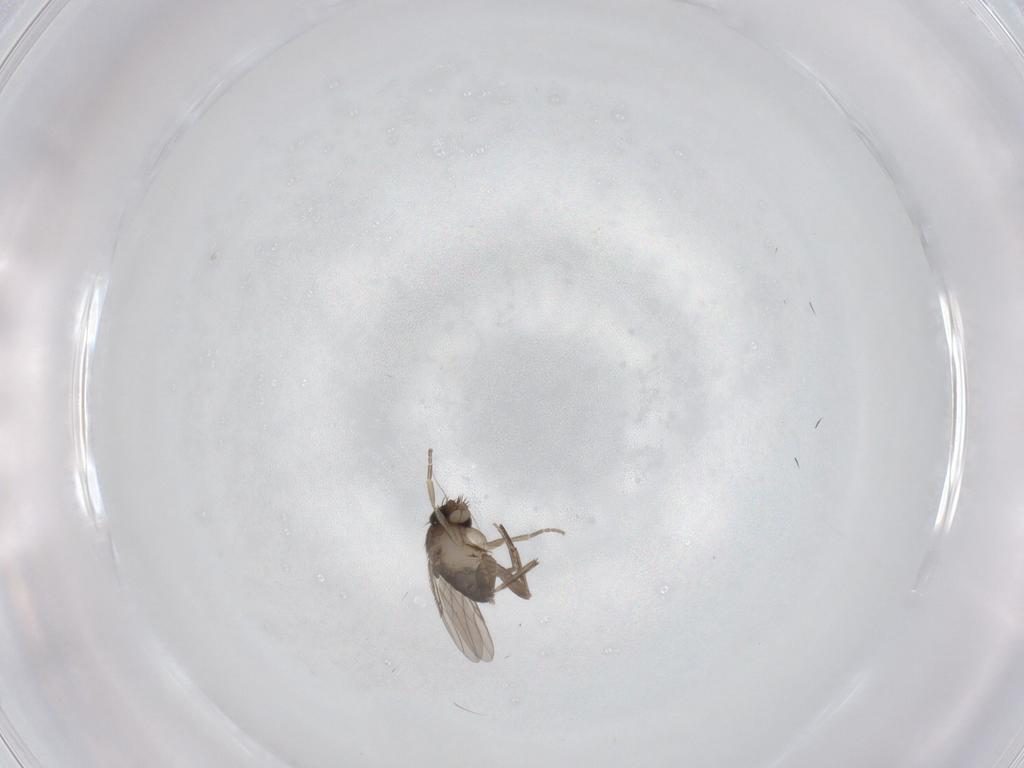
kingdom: Animalia
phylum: Arthropoda
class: Insecta
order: Diptera
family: Phoridae
